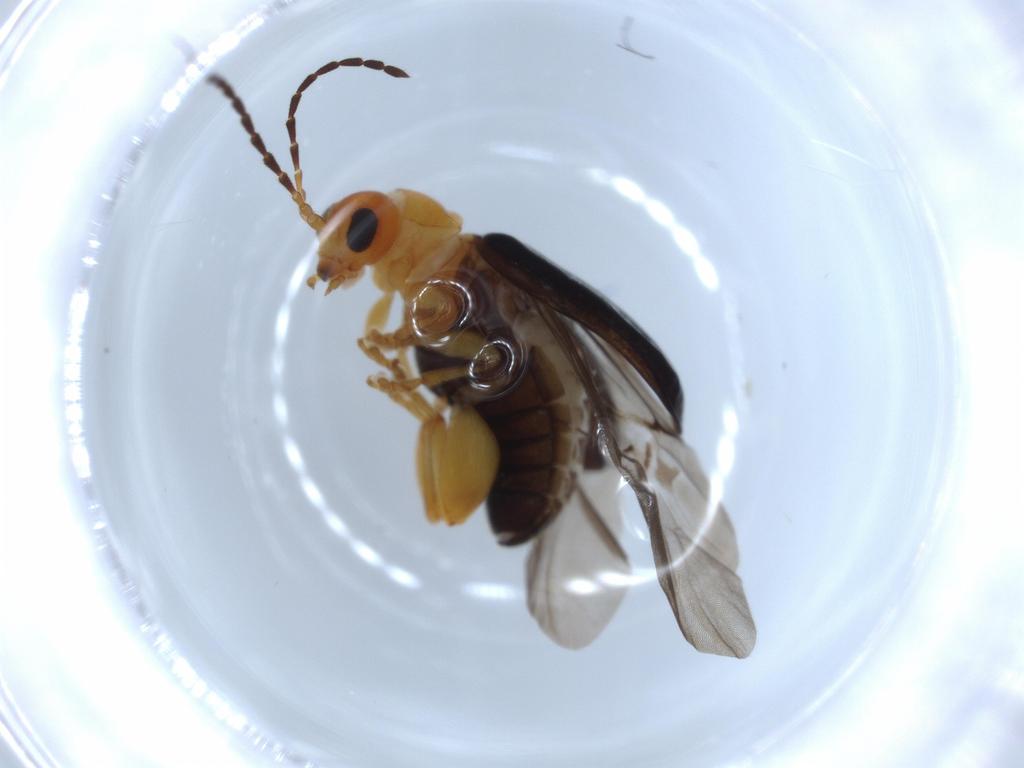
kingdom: Animalia
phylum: Arthropoda
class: Insecta
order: Coleoptera
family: Chrysomelidae
